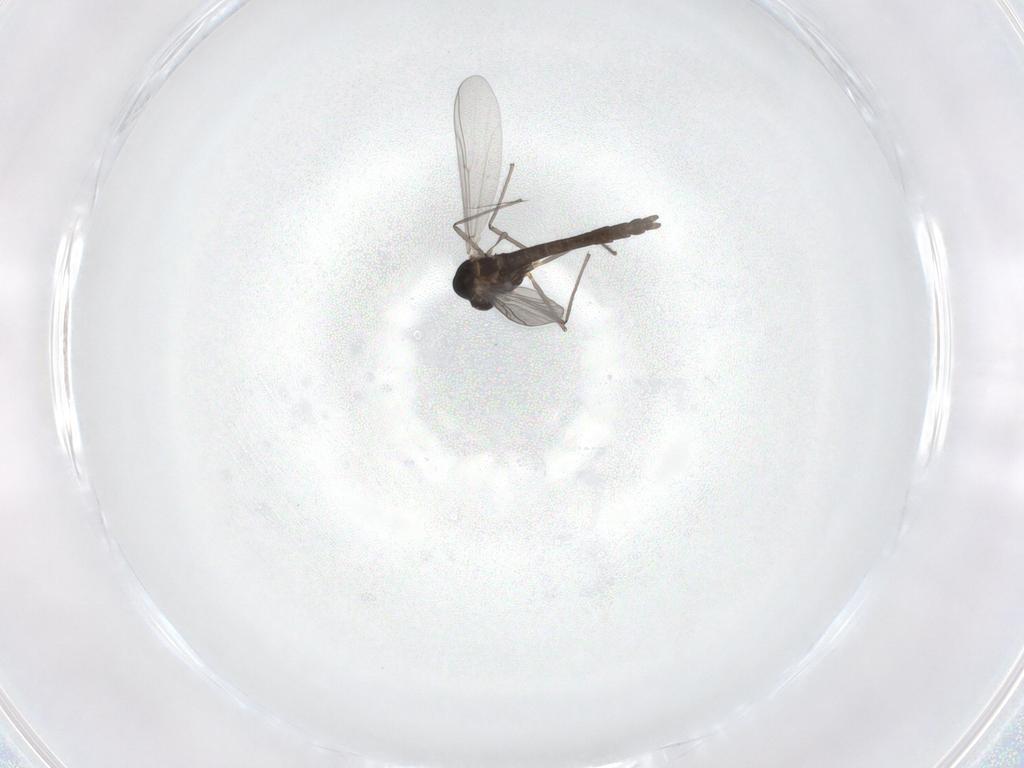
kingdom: Animalia
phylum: Arthropoda
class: Insecta
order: Diptera
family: Chironomidae
